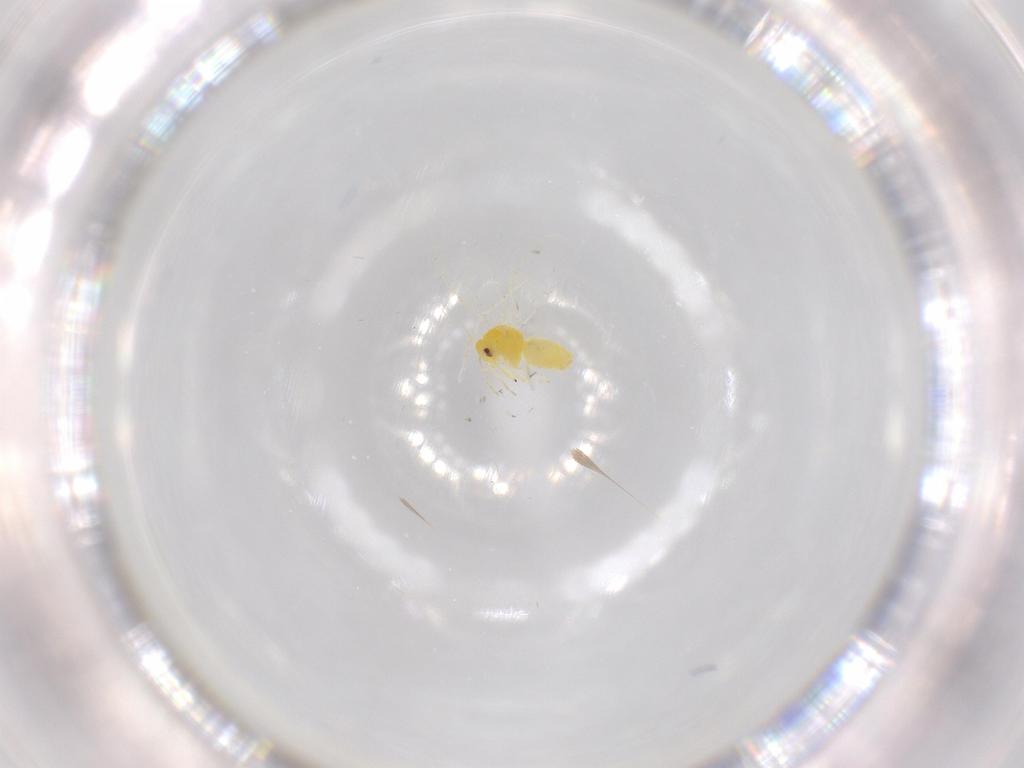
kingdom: Animalia
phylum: Arthropoda
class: Insecta
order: Hemiptera
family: Aleyrodidae
